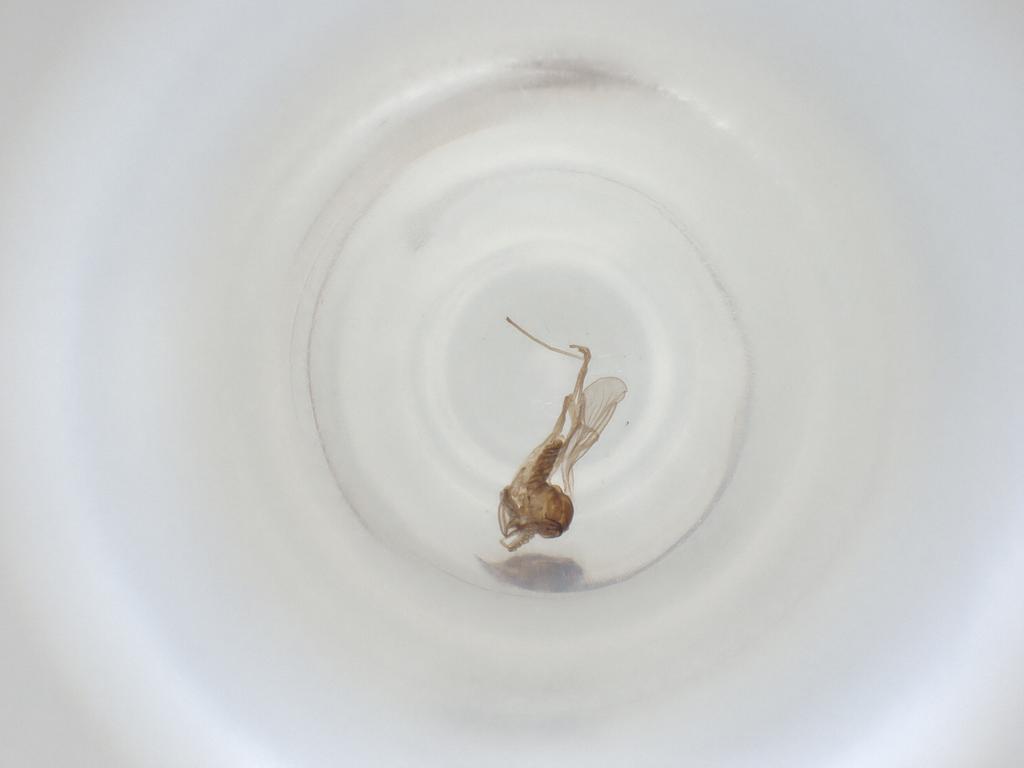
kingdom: Animalia
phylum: Arthropoda
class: Insecta
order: Diptera
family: Cecidomyiidae
